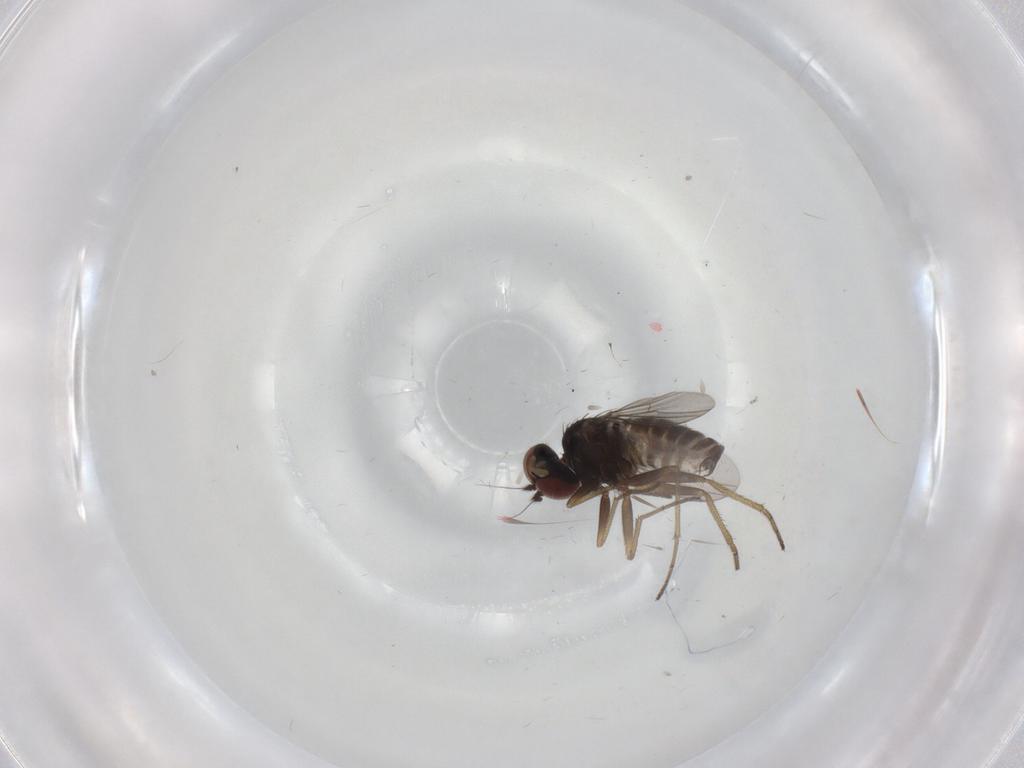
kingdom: Animalia
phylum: Arthropoda
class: Insecta
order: Diptera
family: Dolichopodidae
